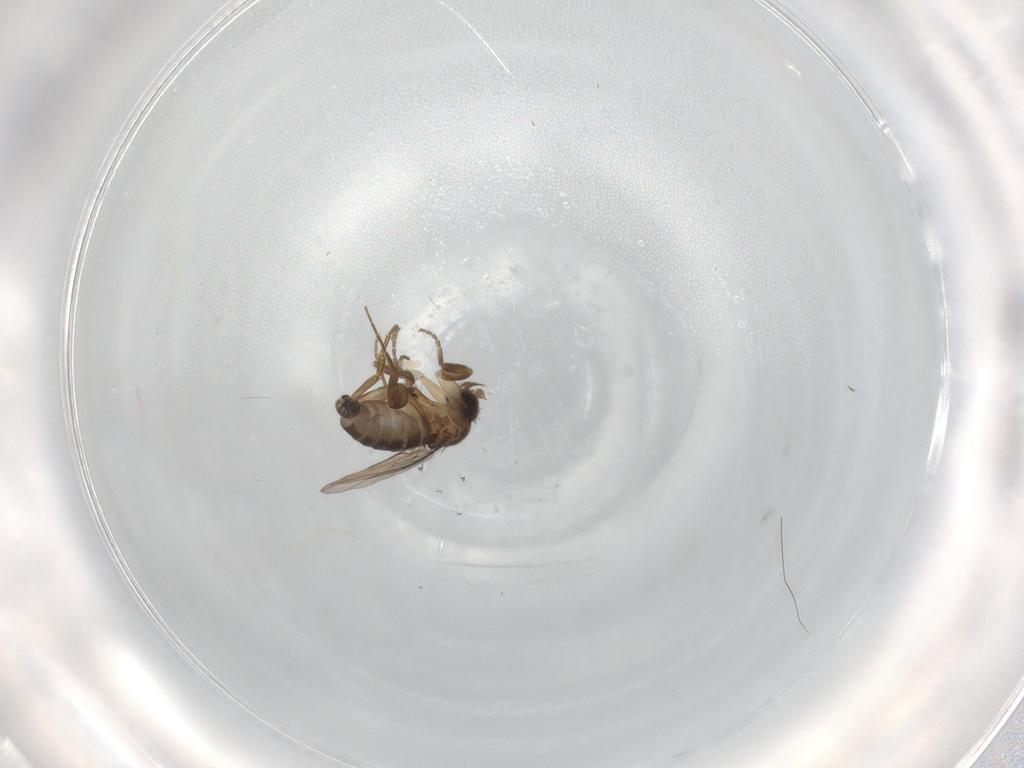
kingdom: Animalia
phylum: Arthropoda
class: Insecta
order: Diptera
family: Phoridae
